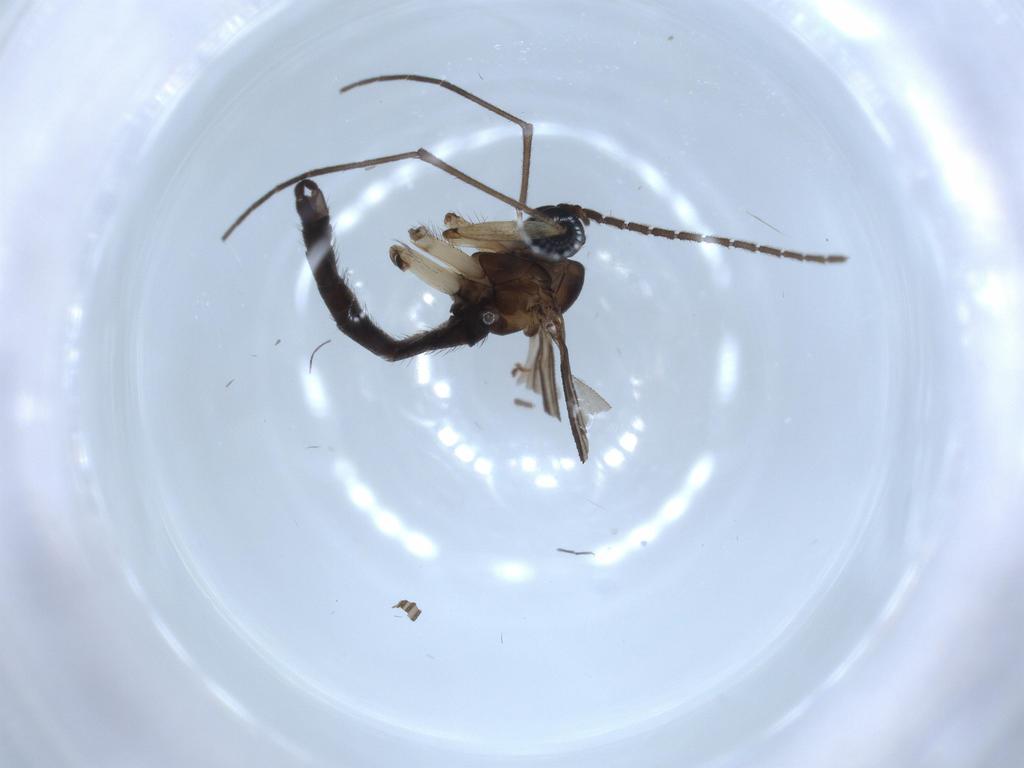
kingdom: Animalia
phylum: Arthropoda
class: Insecta
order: Diptera
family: Sciaridae
